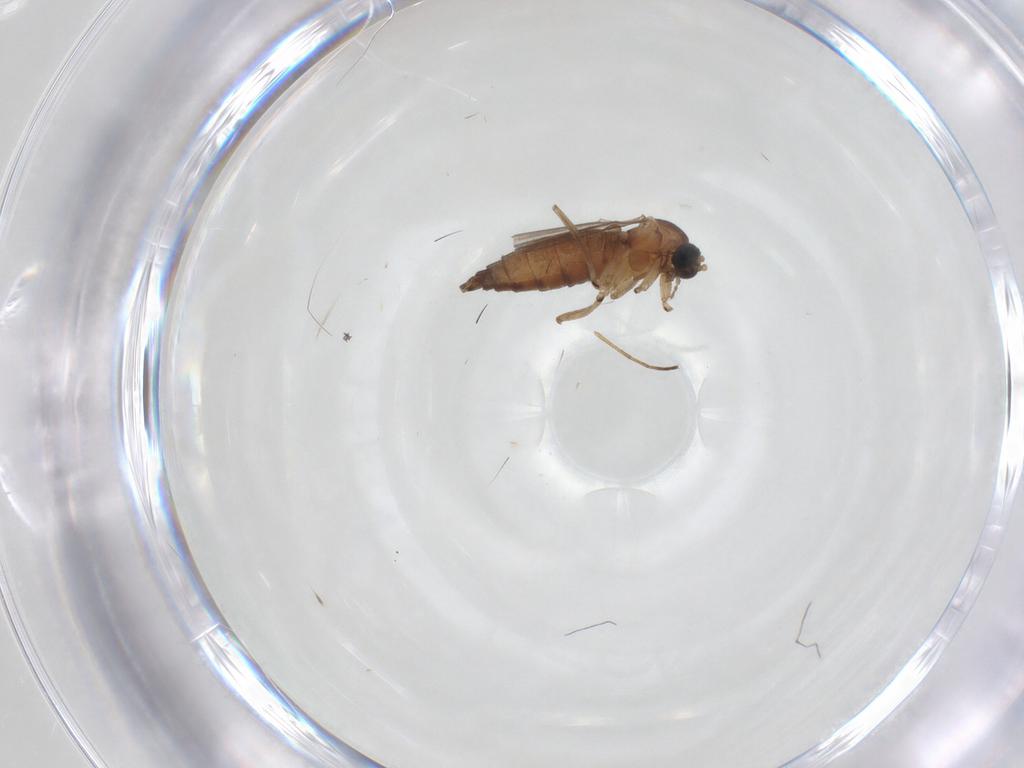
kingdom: Animalia
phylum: Arthropoda
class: Insecta
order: Diptera
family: Sciaridae
